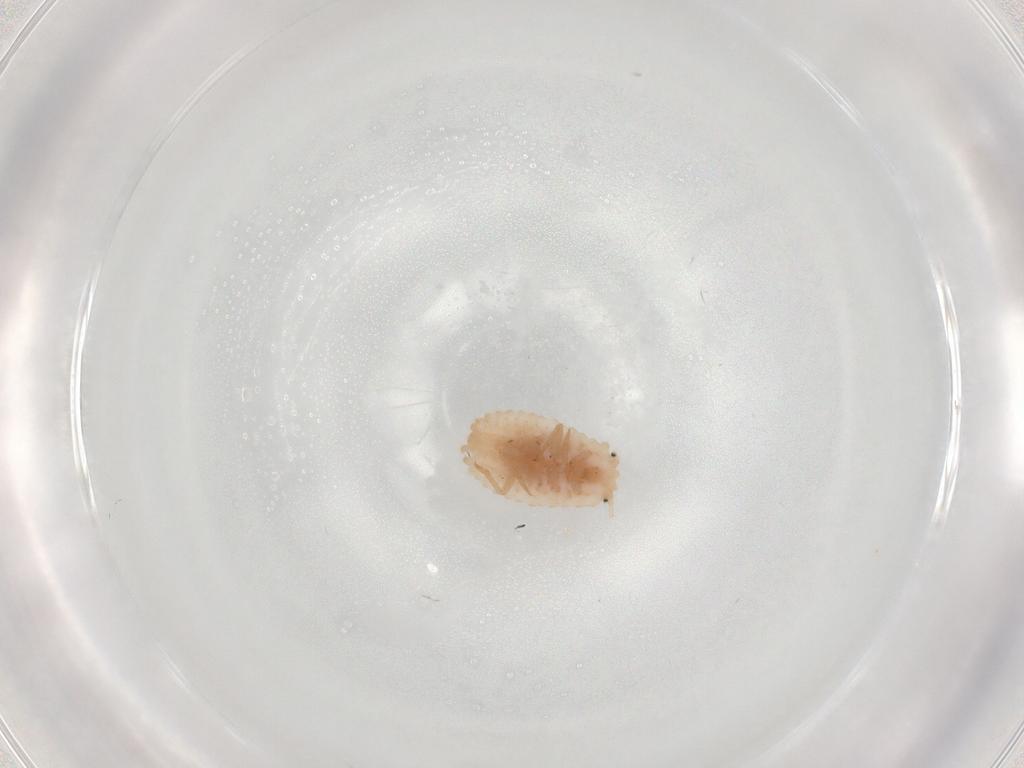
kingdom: Animalia
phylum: Arthropoda
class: Insecta
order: Hemiptera
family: Coccoidea_incertae_sedis
